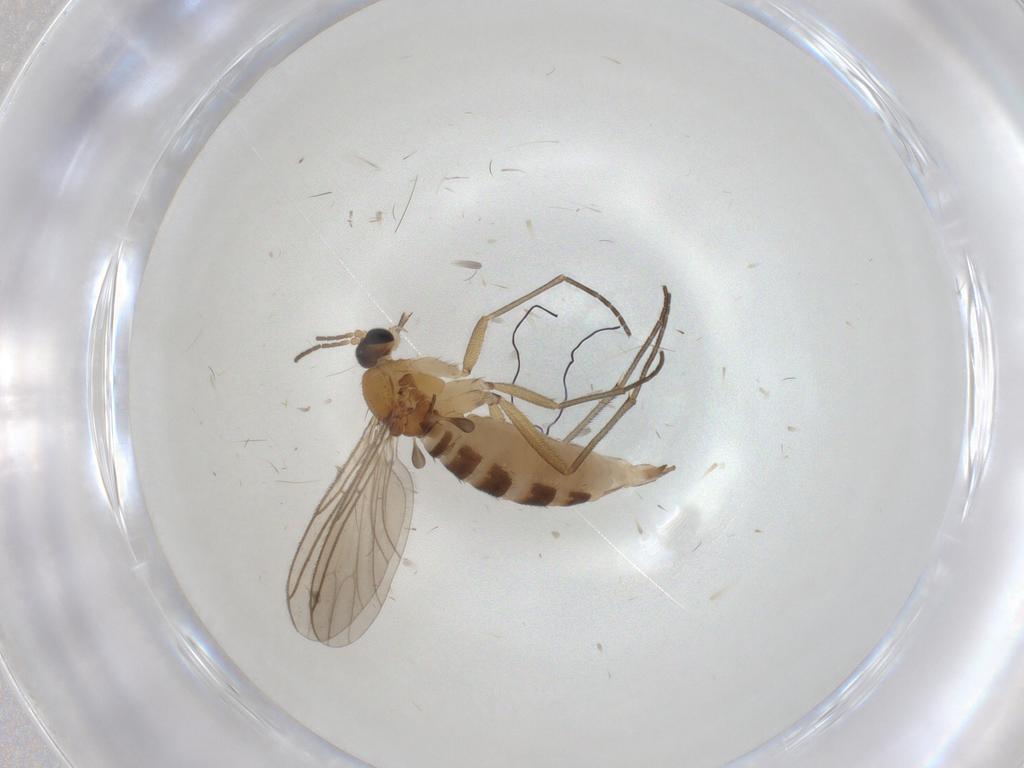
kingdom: Animalia
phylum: Arthropoda
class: Insecta
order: Diptera
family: Sciaridae
